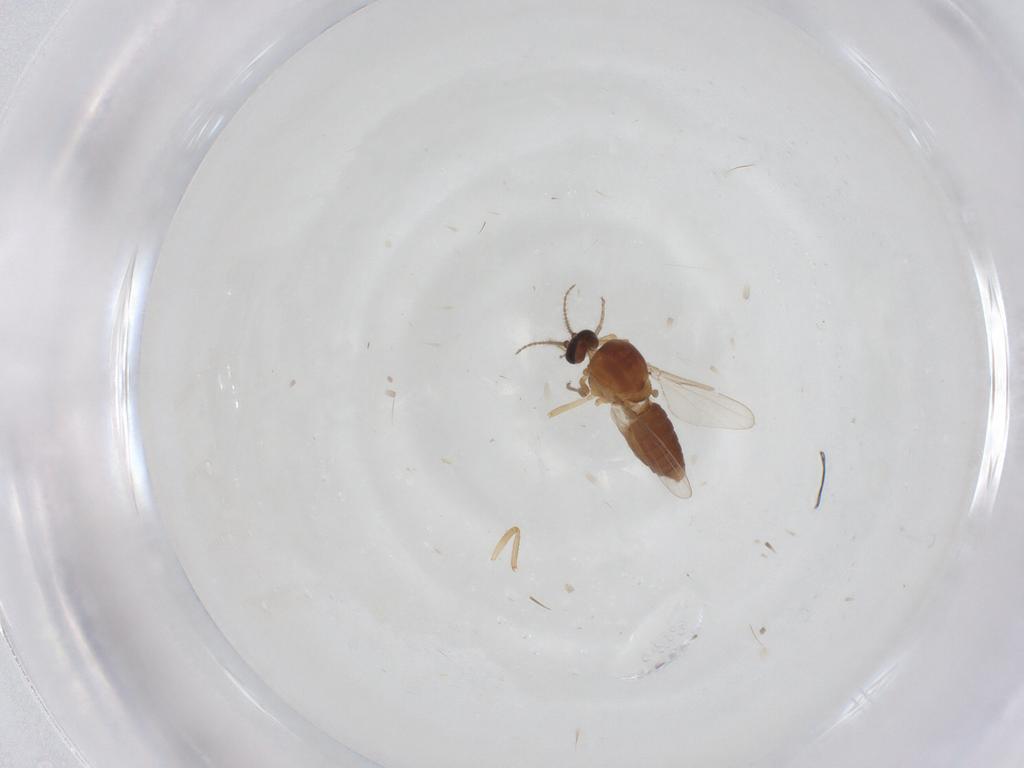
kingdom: Animalia
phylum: Arthropoda
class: Insecta
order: Diptera
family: Ceratopogonidae
